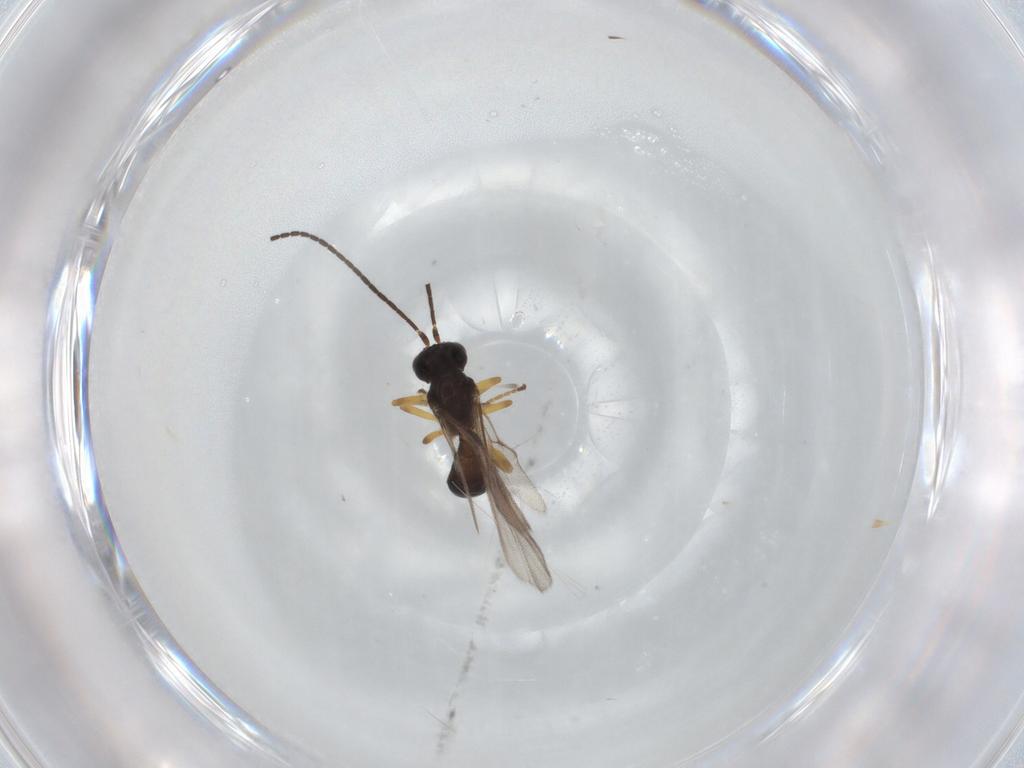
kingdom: Animalia
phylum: Arthropoda
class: Insecta
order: Hymenoptera
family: Braconidae
